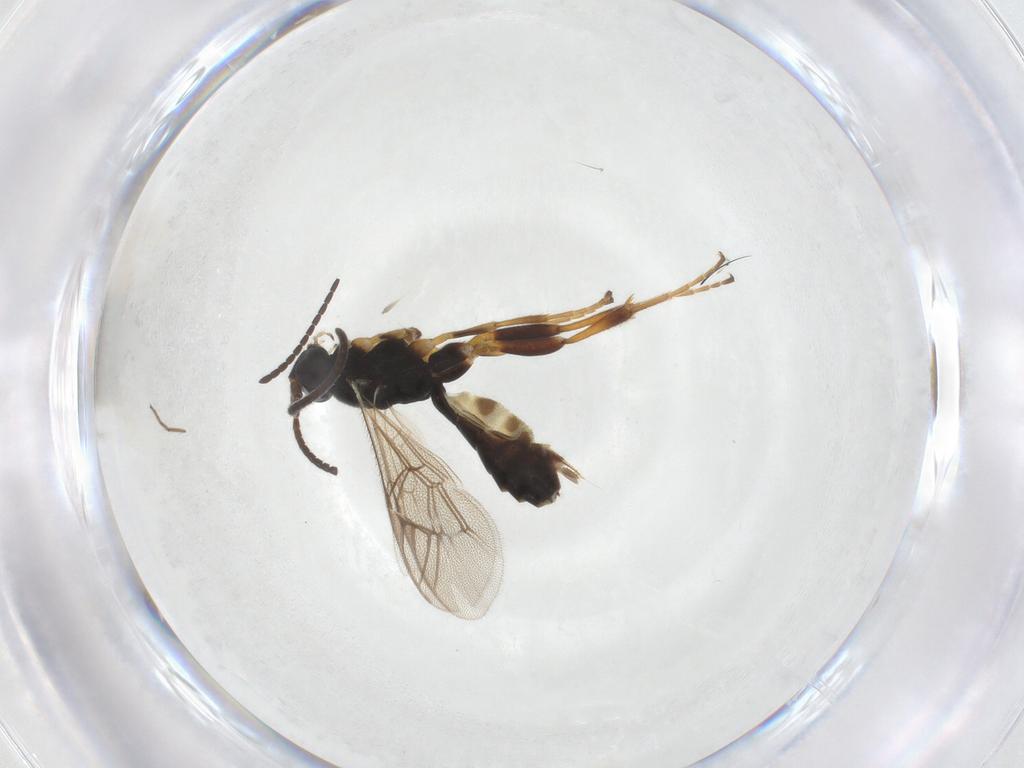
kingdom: Animalia
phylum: Arthropoda
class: Insecta
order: Hymenoptera
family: Ichneumonidae
